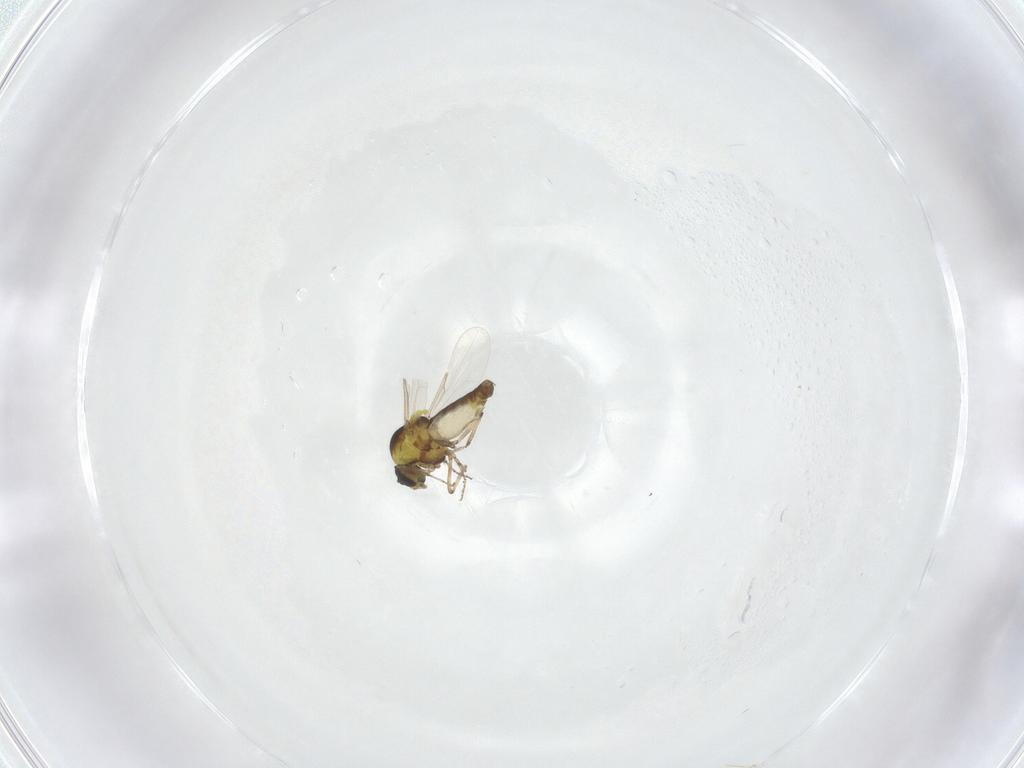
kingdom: Animalia
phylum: Arthropoda
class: Insecta
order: Diptera
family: Ceratopogonidae
